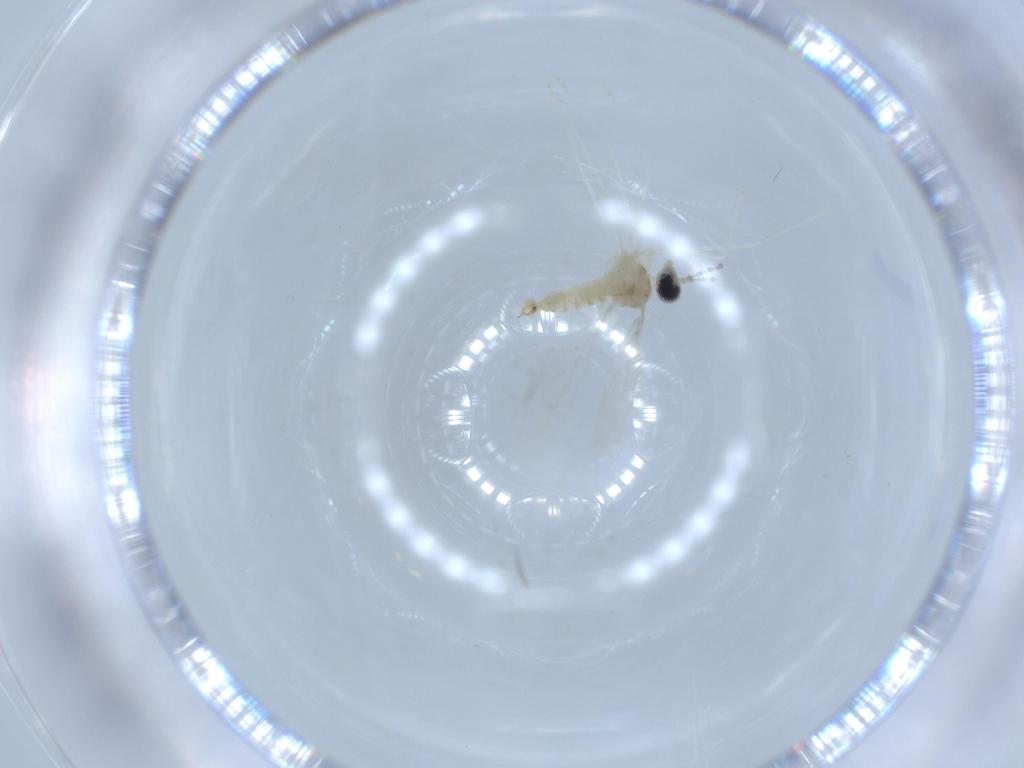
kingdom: Animalia
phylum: Arthropoda
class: Insecta
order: Diptera
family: Cecidomyiidae
